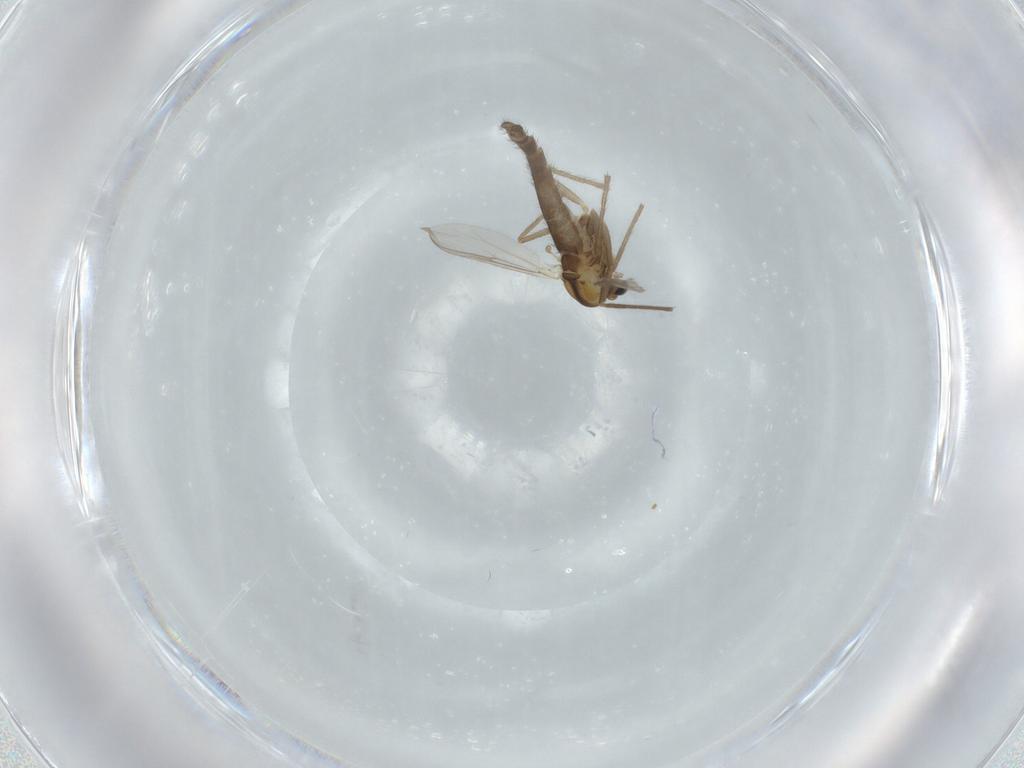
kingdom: Animalia
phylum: Arthropoda
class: Insecta
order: Diptera
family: Chironomidae
